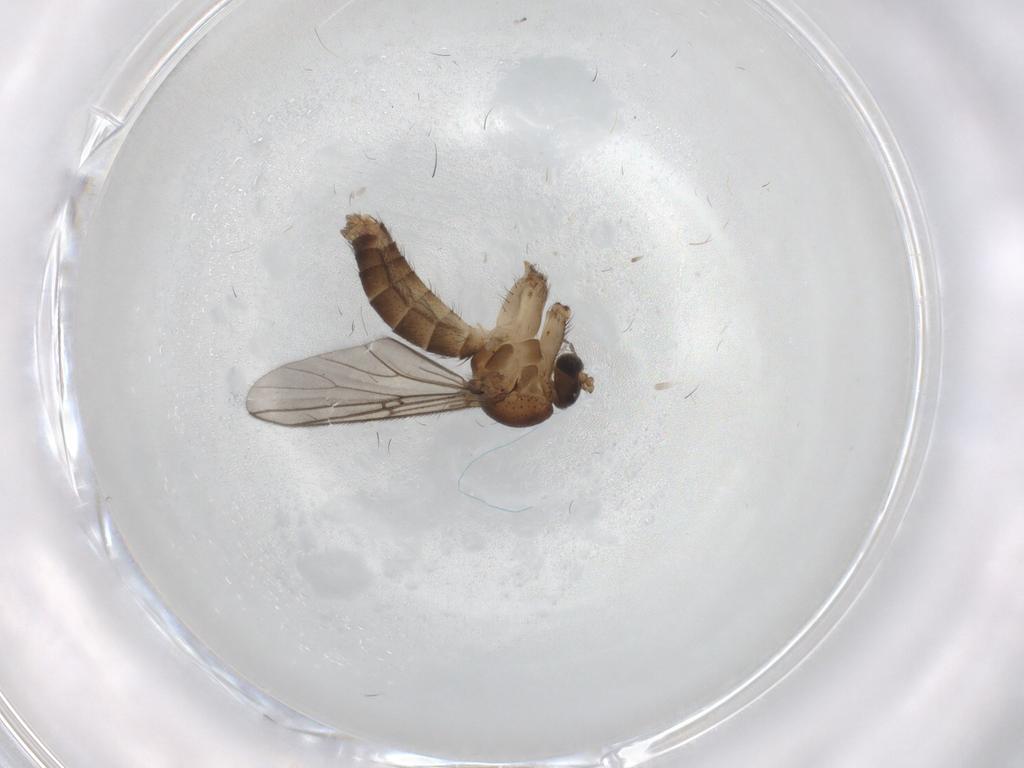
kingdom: Animalia
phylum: Arthropoda
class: Insecta
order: Diptera
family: Mycetophilidae
